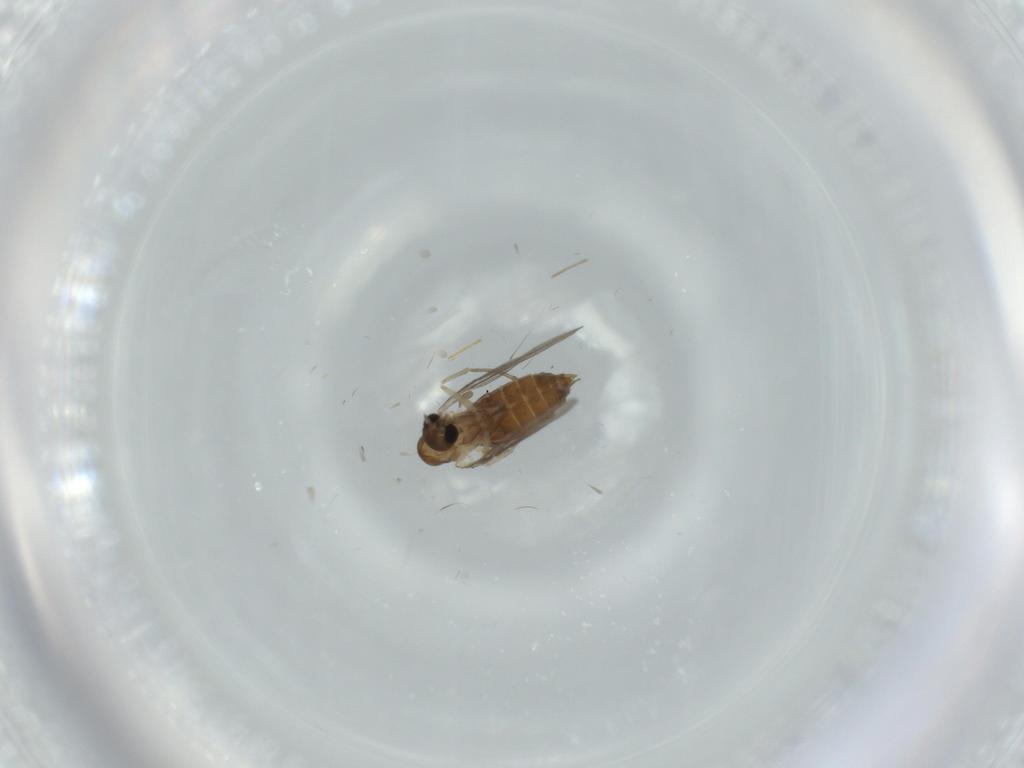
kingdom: Animalia
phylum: Arthropoda
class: Insecta
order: Diptera
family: Cecidomyiidae
